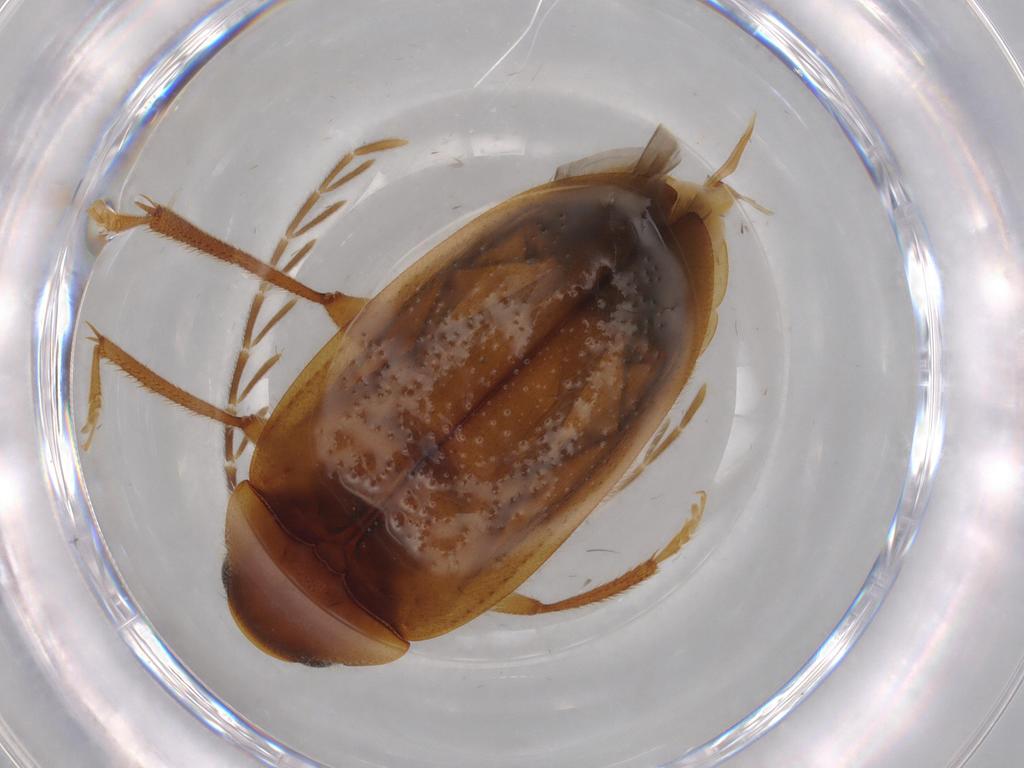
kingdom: Animalia
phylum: Arthropoda
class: Insecta
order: Coleoptera
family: Ptilodactylidae
